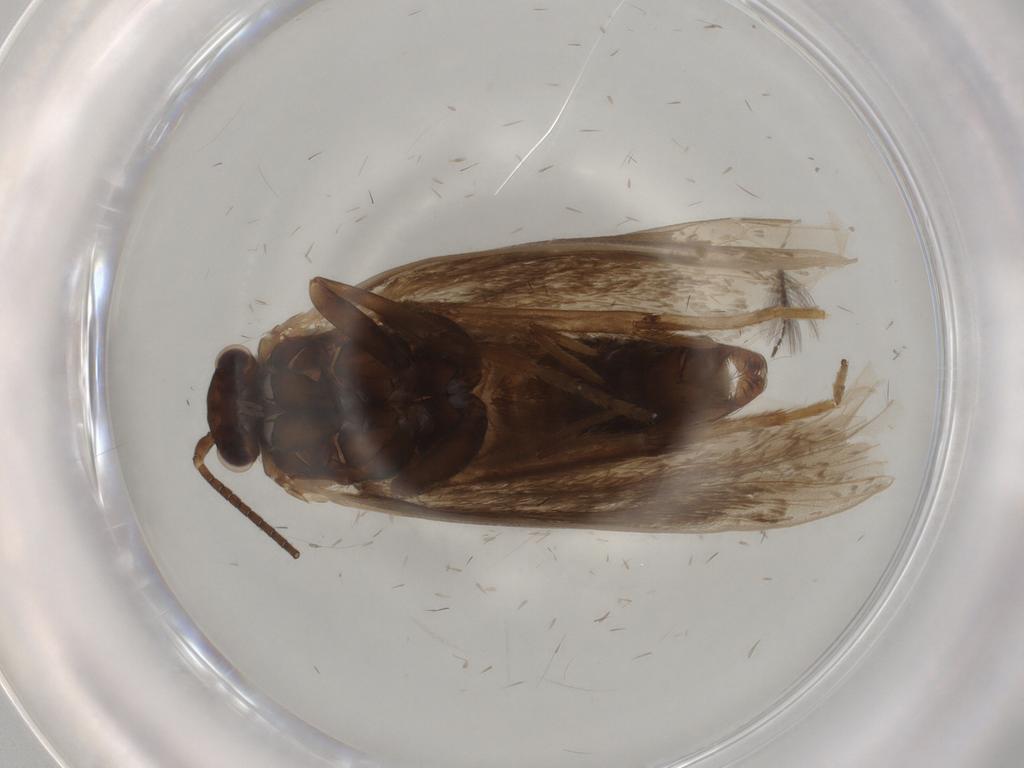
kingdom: Animalia
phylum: Arthropoda
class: Insecta
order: Lepidoptera
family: Incurvariidae
